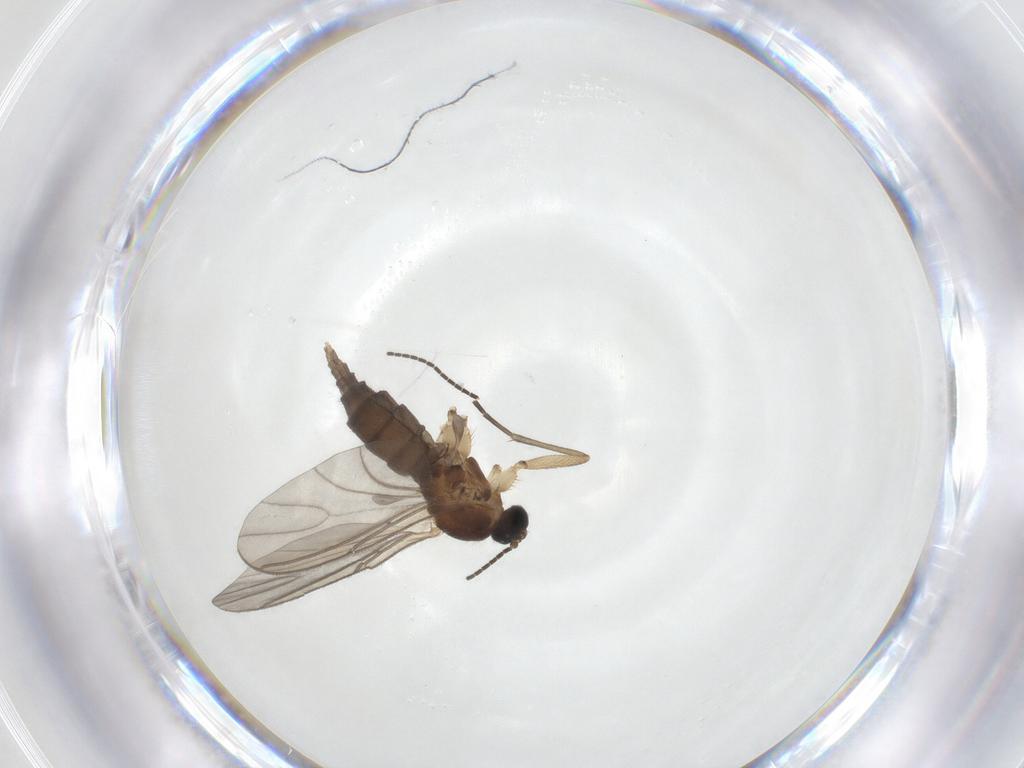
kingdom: Animalia
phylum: Arthropoda
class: Insecta
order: Diptera
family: Sciaridae
